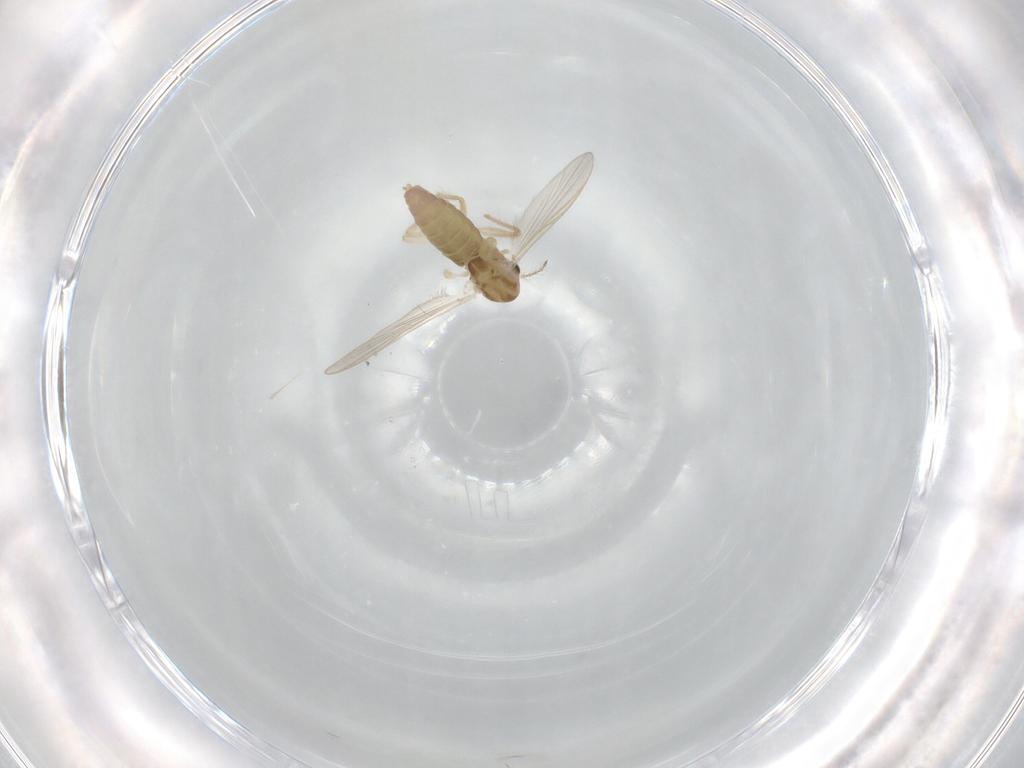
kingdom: Animalia
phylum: Arthropoda
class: Insecta
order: Diptera
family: Chironomidae
